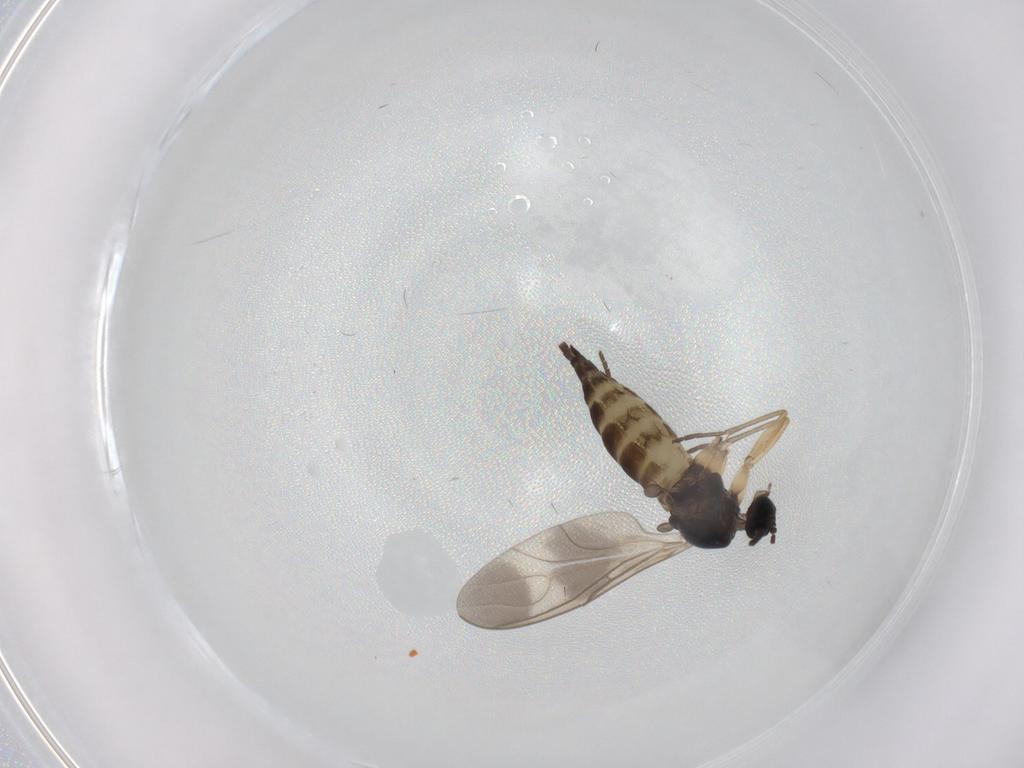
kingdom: Animalia
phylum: Arthropoda
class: Insecta
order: Diptera
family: Sciaridae
